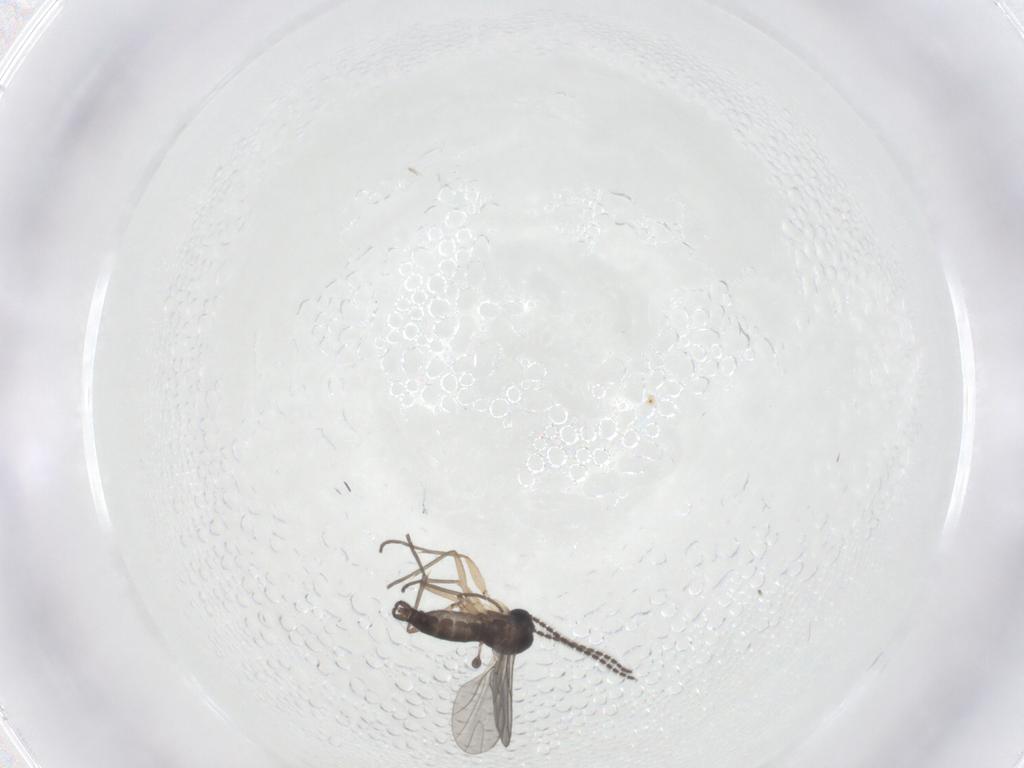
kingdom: Animalia
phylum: Arthropoda
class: Insecta
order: Diptera
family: Sciaridae
